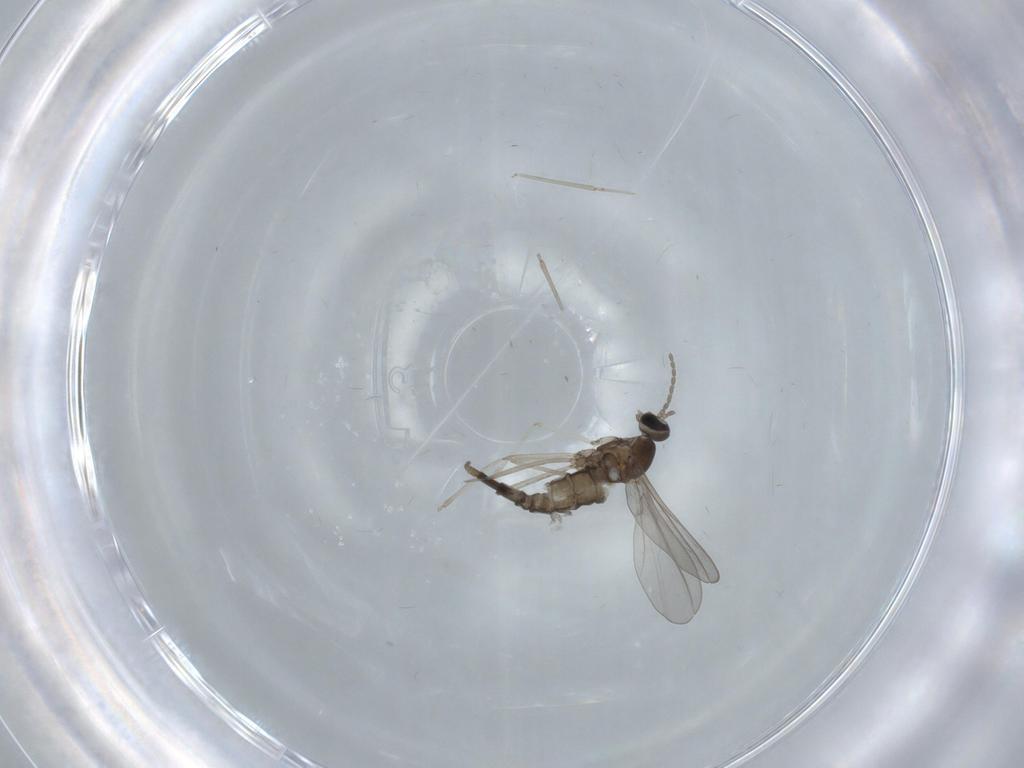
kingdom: Animalia
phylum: Arthropoda
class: Insecta
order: Diptera
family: Cecidomyiidae
